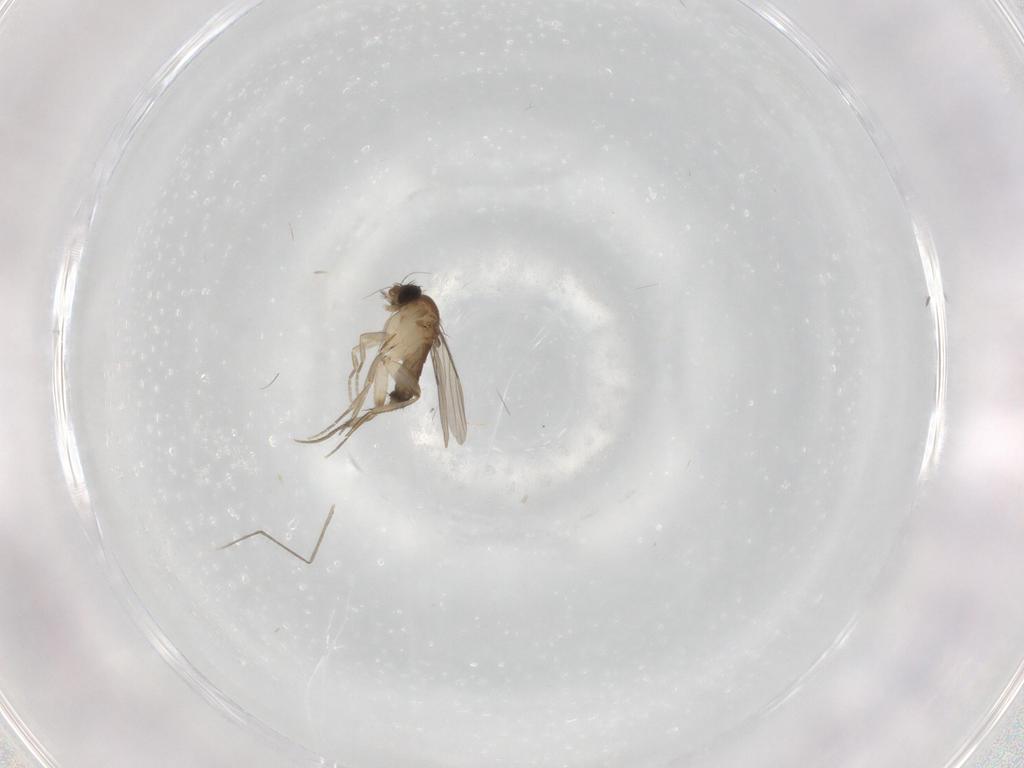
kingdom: Animalia
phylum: Arthropoda
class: Insecta
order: Diptera
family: Phoridae
